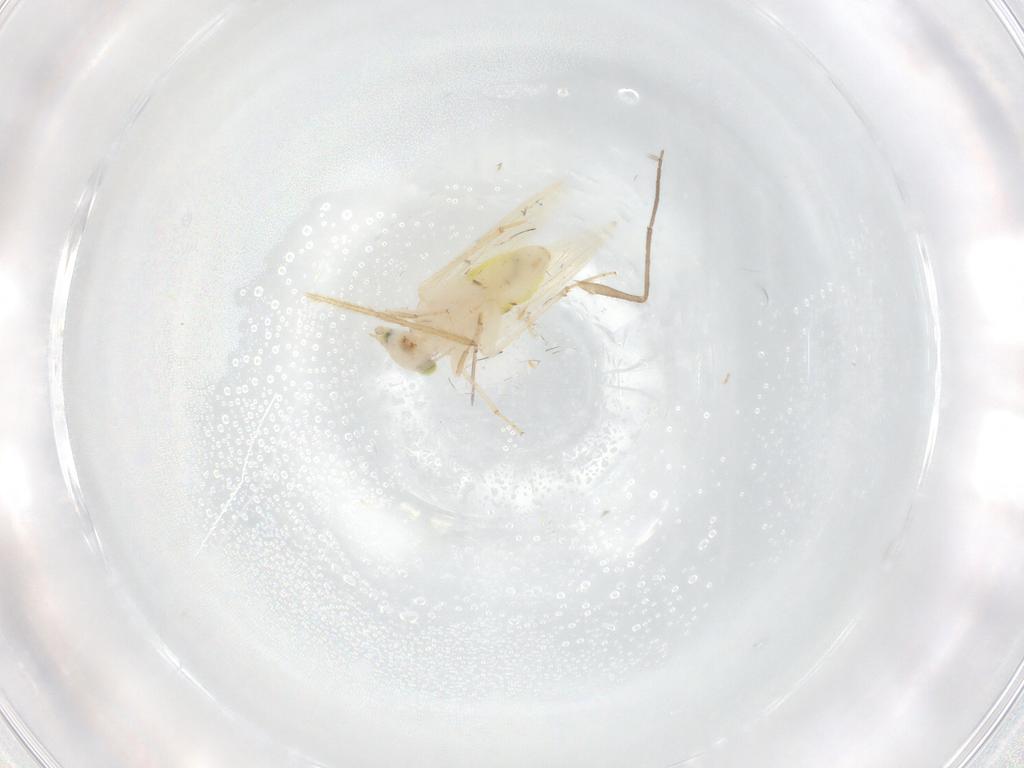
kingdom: Animalia
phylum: Arthropoda
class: Insecta
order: Psocodea
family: Lepidopsocidae
